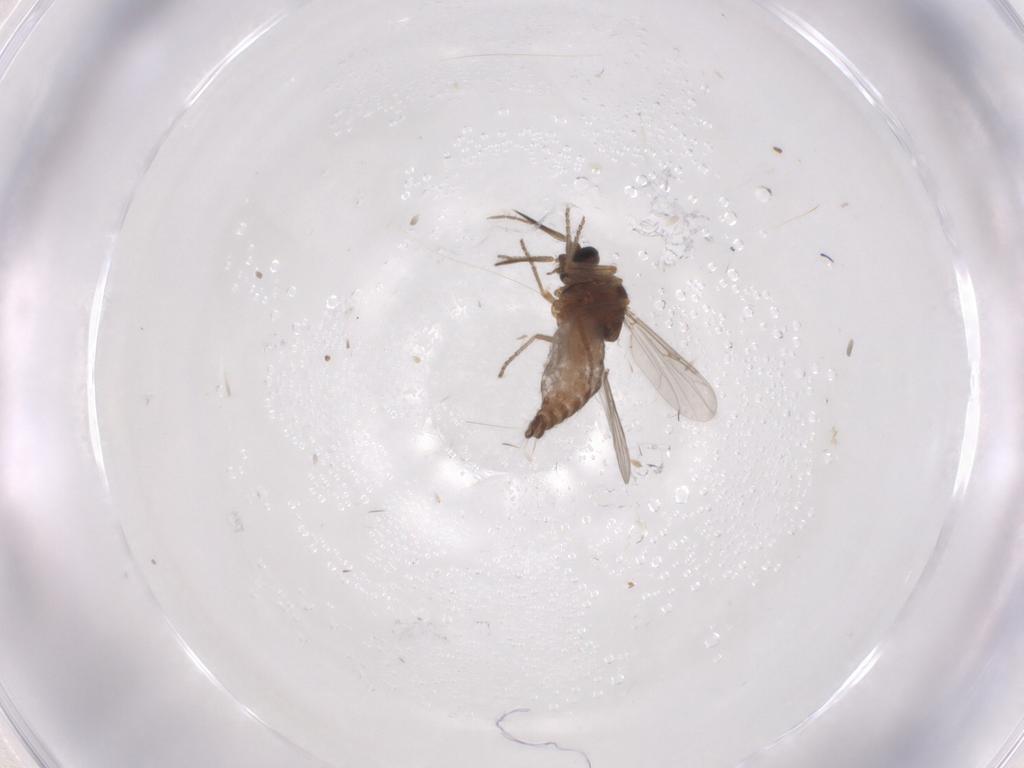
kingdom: Animalia
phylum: Arthropoda
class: Insecta
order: Diptera
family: Ceratopogonidae
